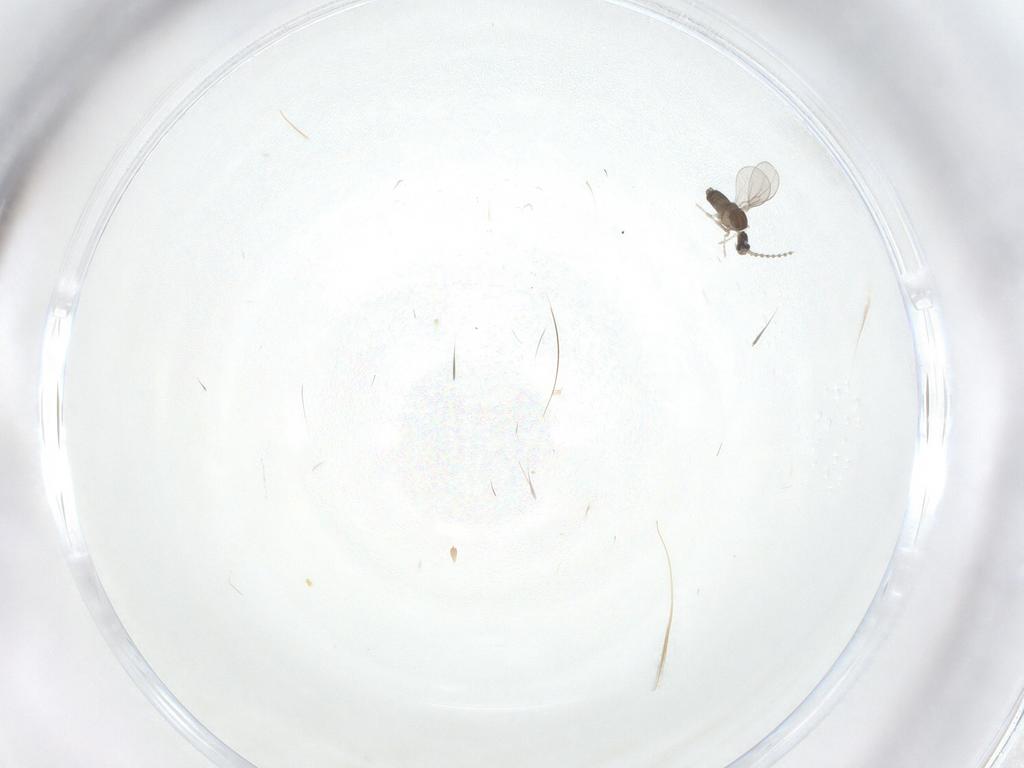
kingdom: Animalia
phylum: Arthropoda
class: Insecta
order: Diptera
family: Cecidomyiidae
